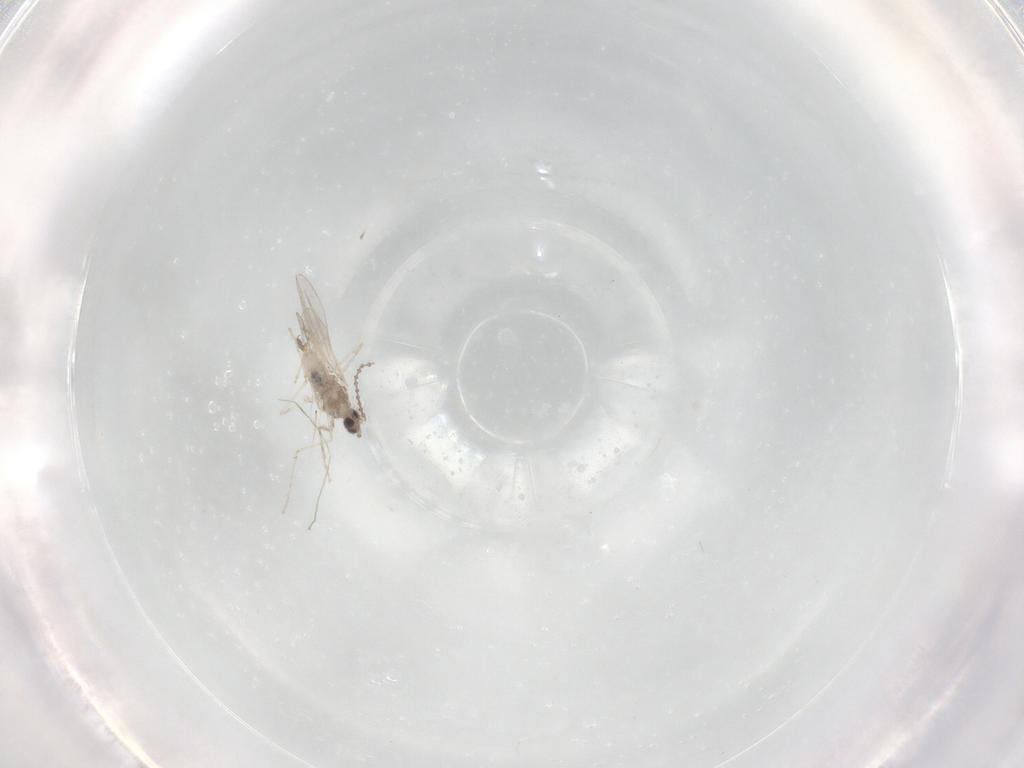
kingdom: Animalia
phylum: Arthropoda
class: Insecta
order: Diptera
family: Cecidomyiidae
